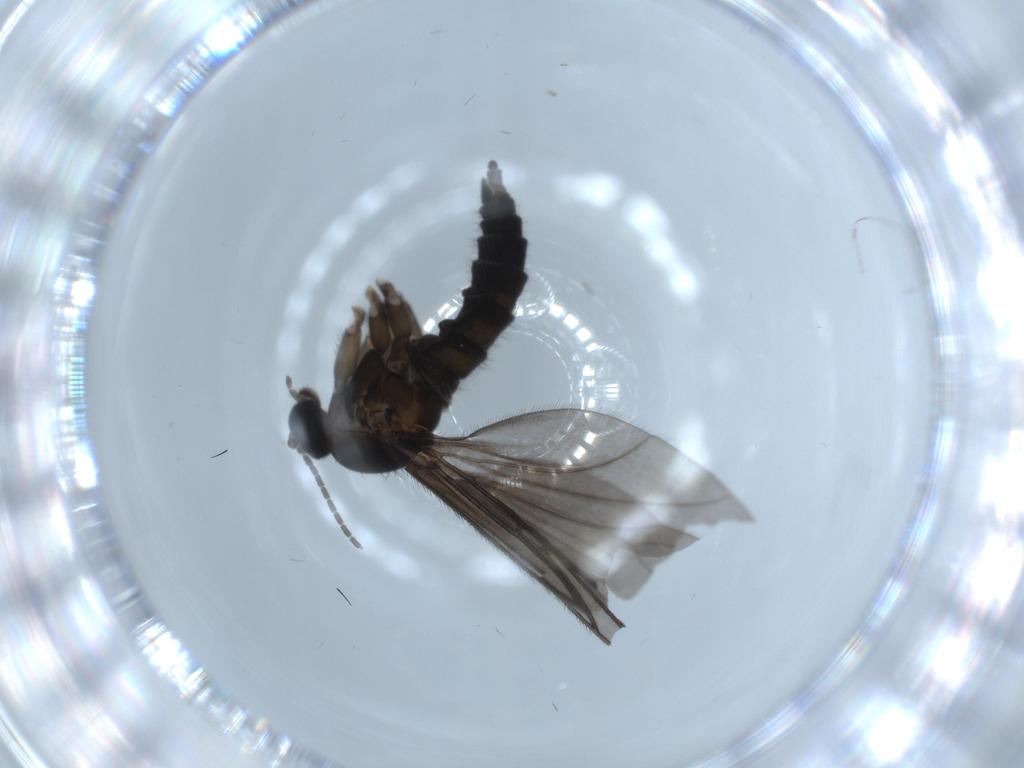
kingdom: Animalia
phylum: Arthropoda
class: Insecta
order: Diptera
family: Sciaridae
